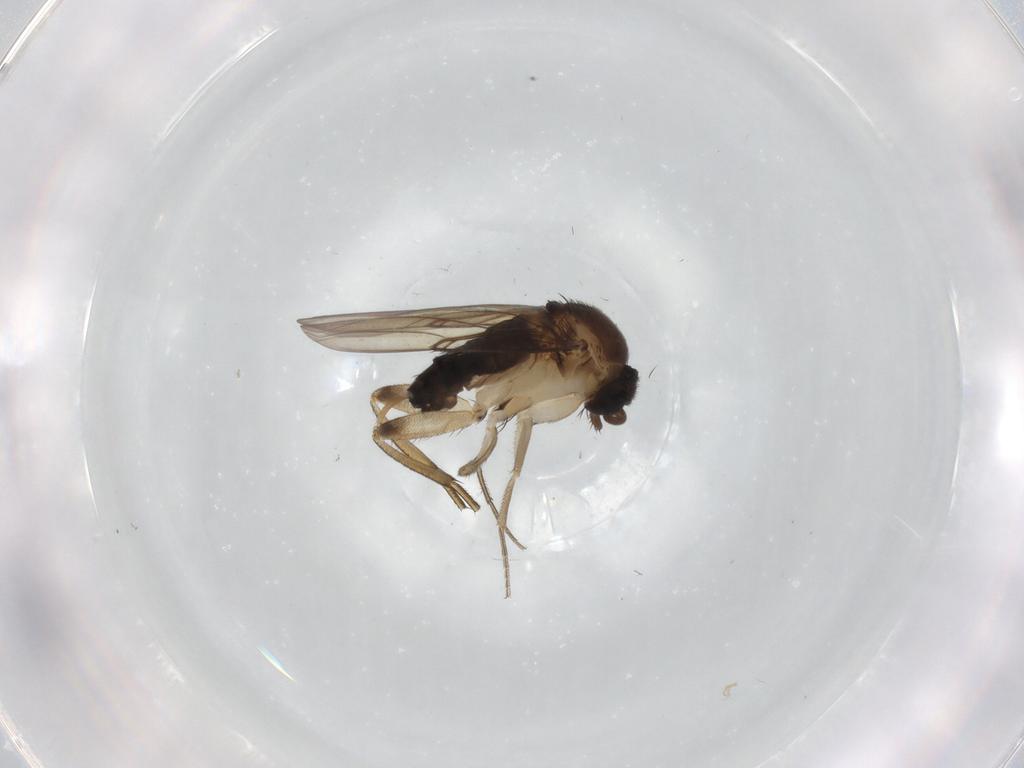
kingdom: Animalia
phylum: Arthropoda
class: Insecta
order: Diptera
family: Phoridae
